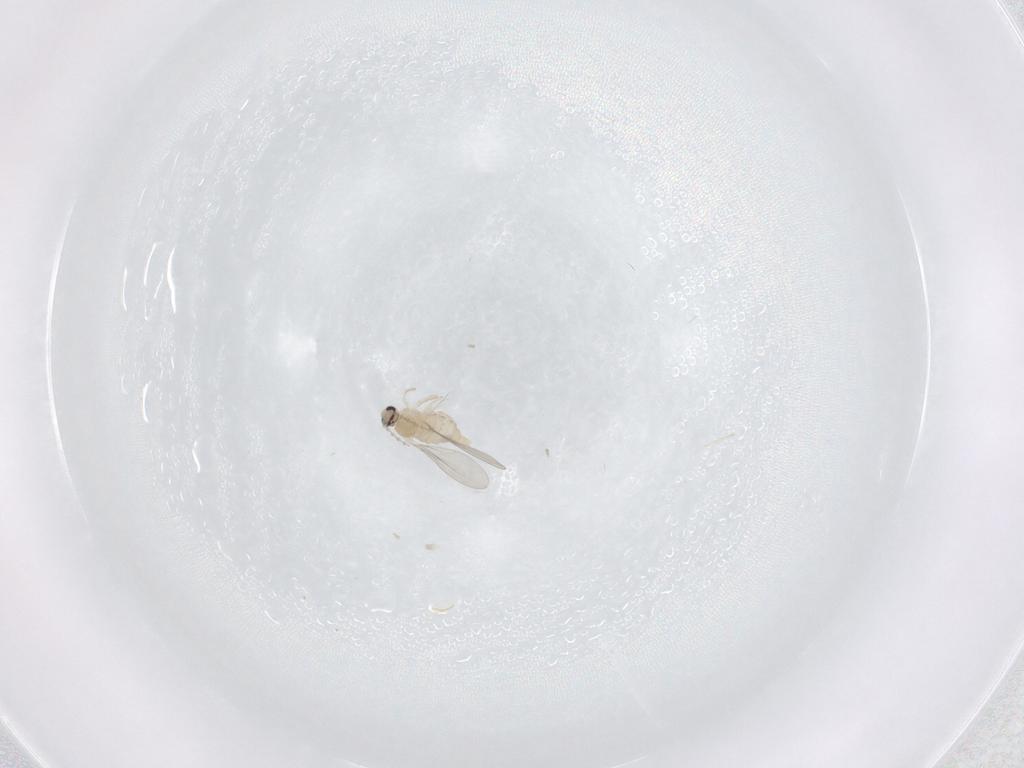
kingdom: Animalia
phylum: Arthropoda
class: Insecta
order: Diptera
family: Cecidomyiidae
